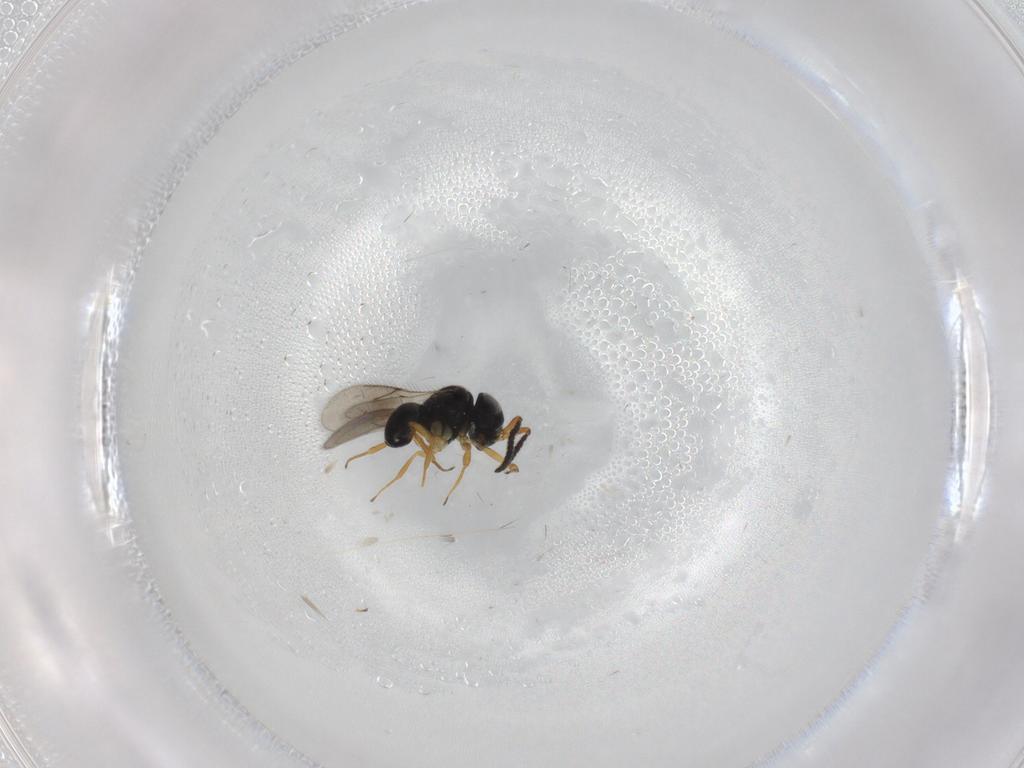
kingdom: Animalia
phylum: Arthropoda
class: Insecta
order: Hymenoptera
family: Scelionidae
